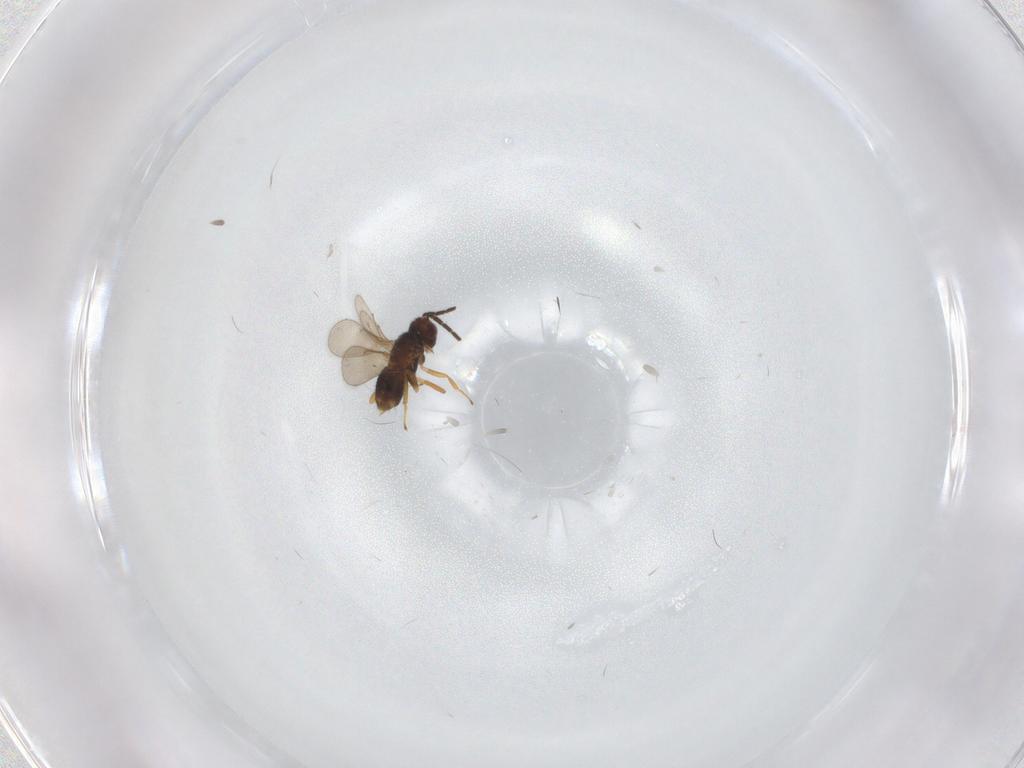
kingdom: Animalia
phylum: Arthropoda
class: Insecta
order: Hymenoptera
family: Aphelinidae
